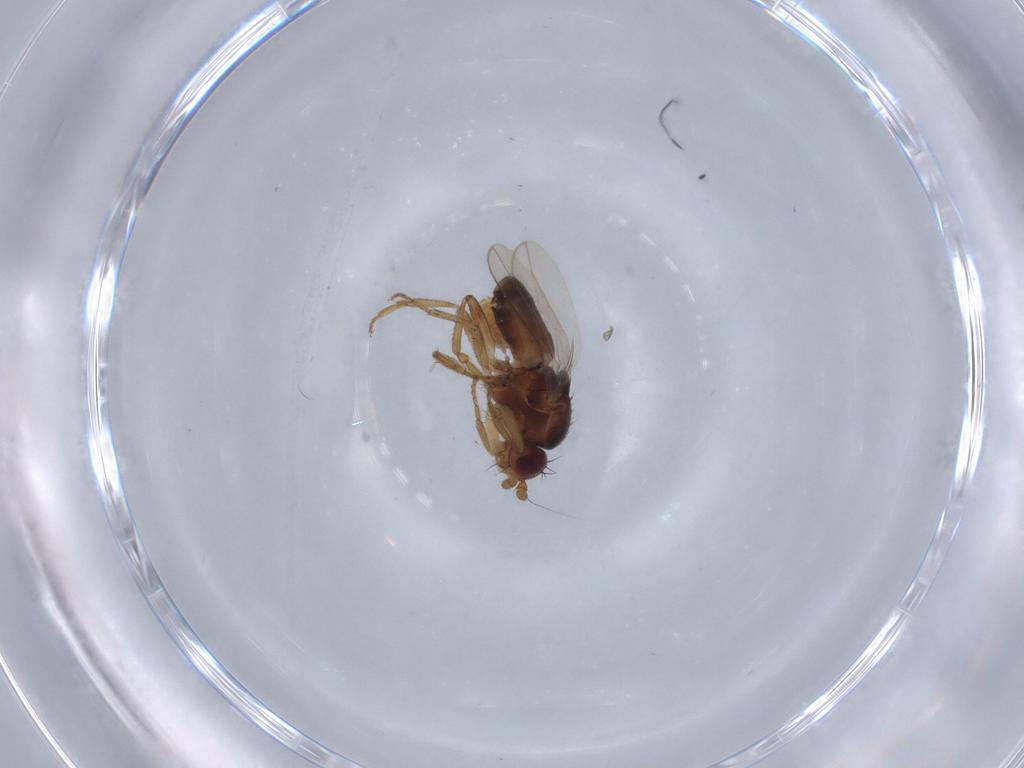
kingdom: Animalia
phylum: Arthropoda
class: Insecta
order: Diptera
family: Sphaeroceridae
